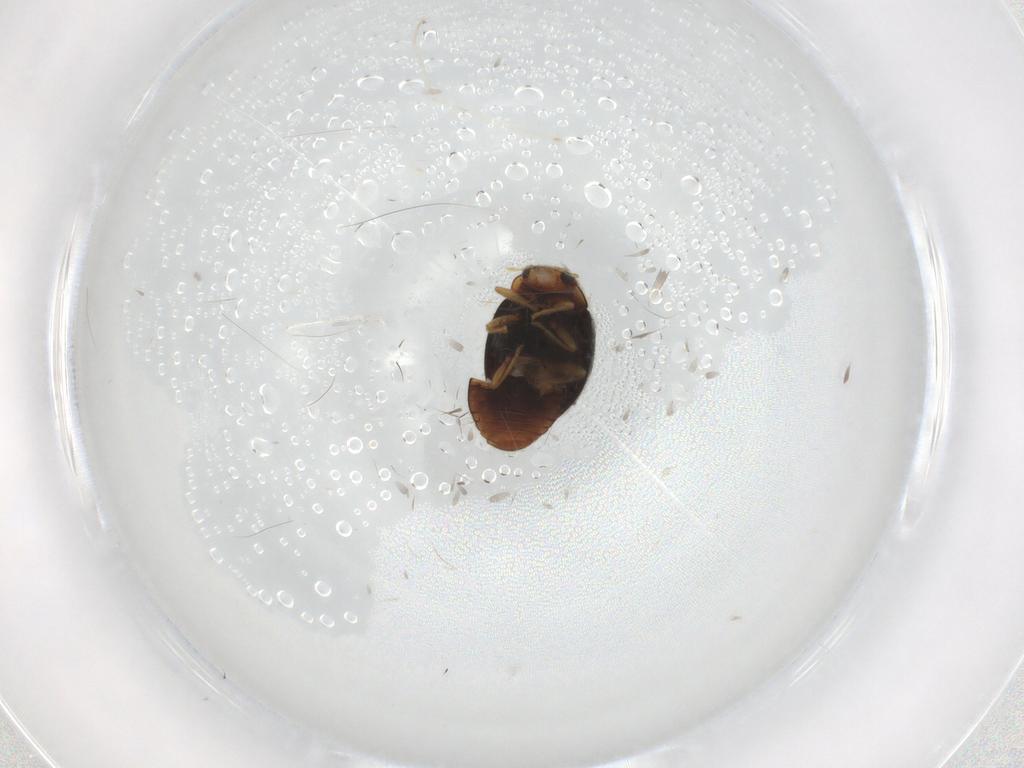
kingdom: Animalia
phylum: Arthropoda
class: Insecta
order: Coleoptera
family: Coccinellidae
